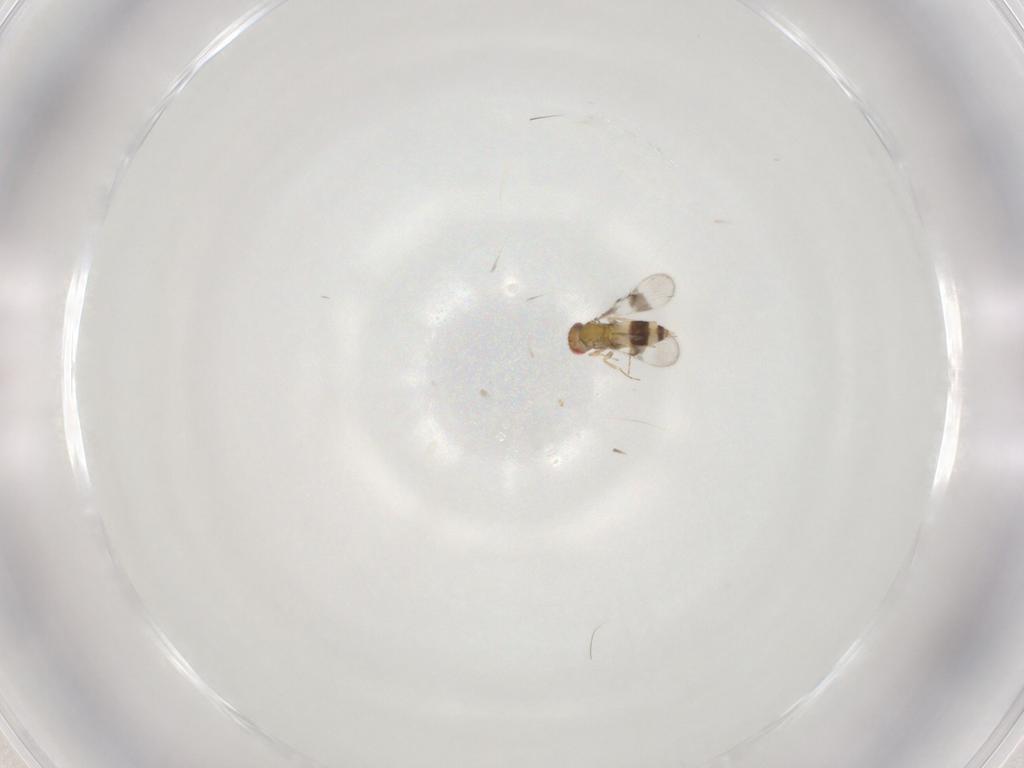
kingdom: Animalia
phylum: Arthropoda
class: Insecta
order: Hymenoptera
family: Trichogrammatidae
